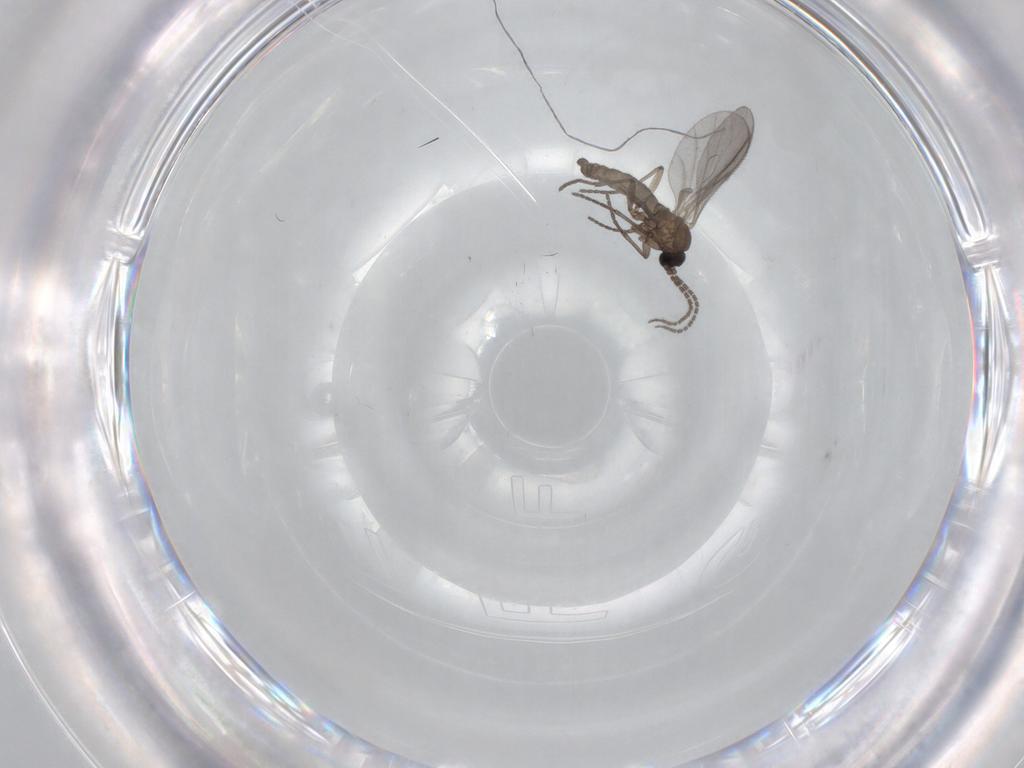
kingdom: Animalia
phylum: Arthropoda
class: Insecta
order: Diptera
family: Sciaridae
